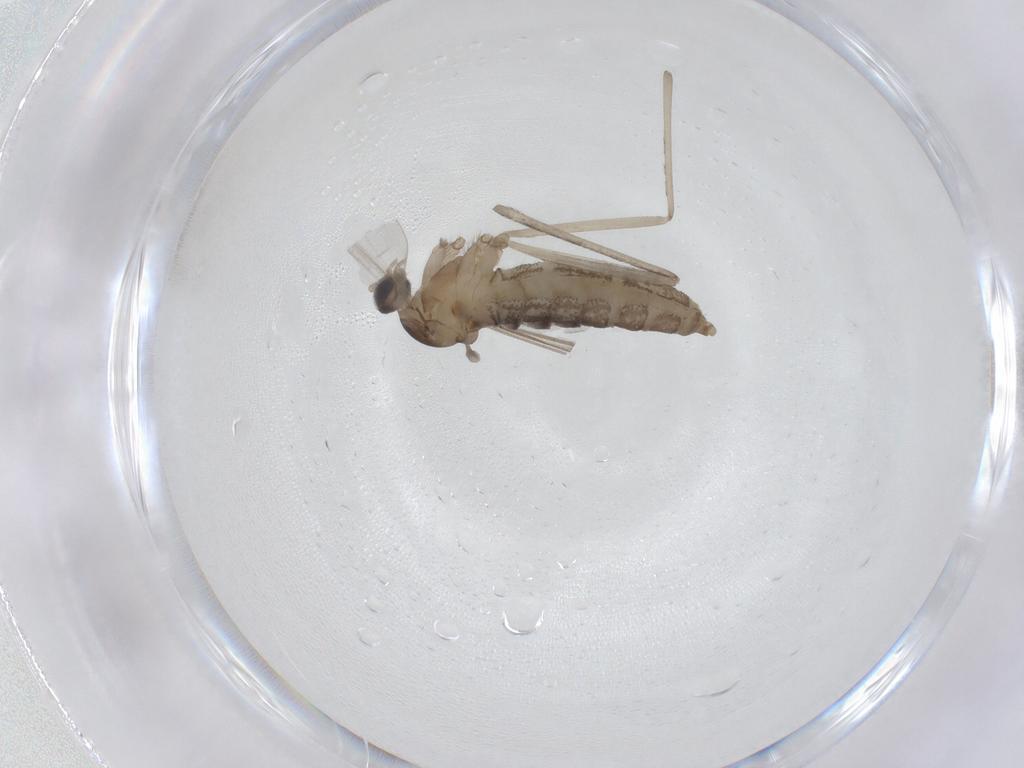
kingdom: Animalia
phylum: Arthropoda
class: Insecta
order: Diptera
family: Cecidomyiidae
